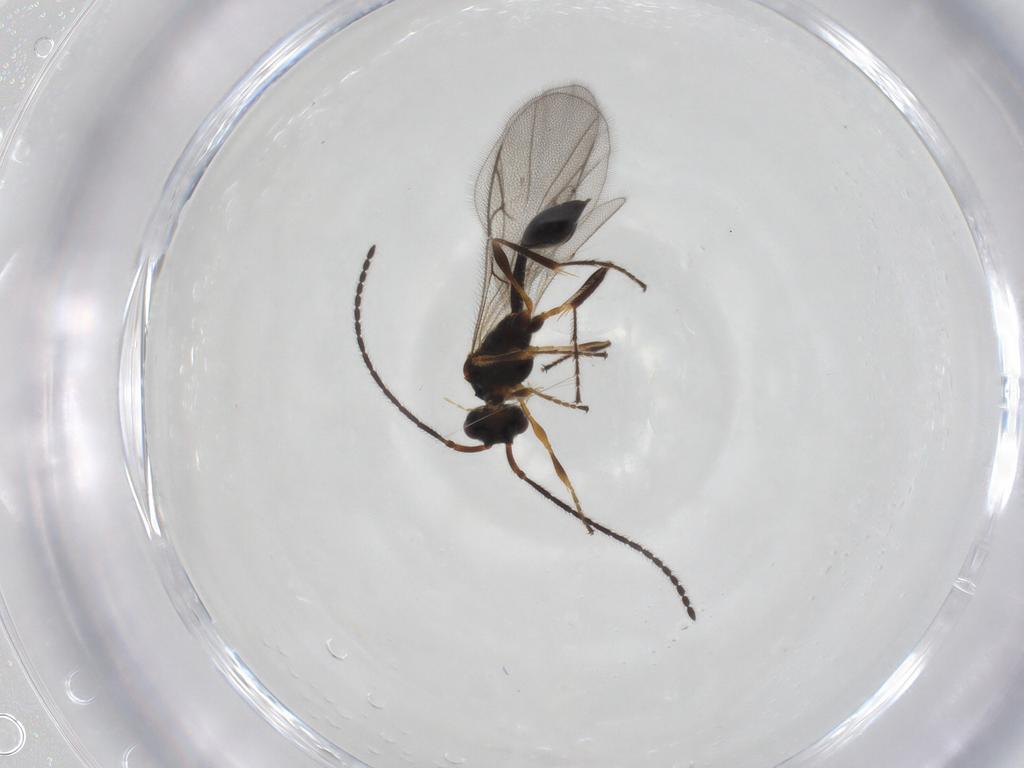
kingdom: Animalia
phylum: Arthropoda
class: Insecta
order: Hymenoptera
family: Diapriidae
